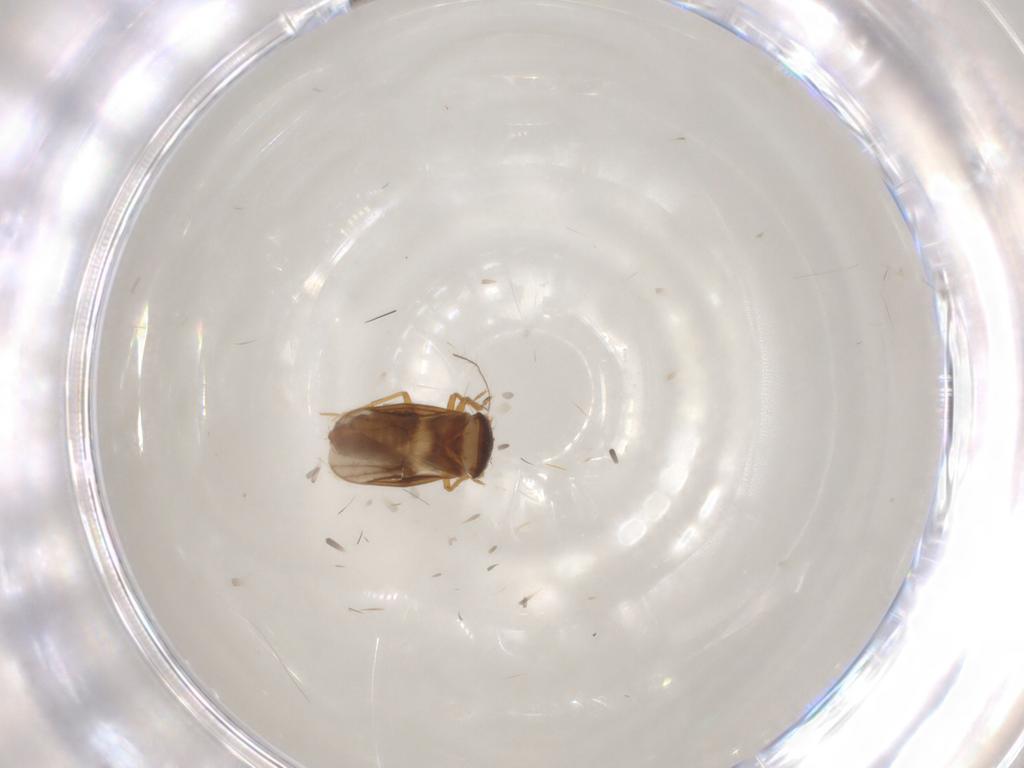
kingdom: Animalia
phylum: Arthropoda
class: Insecta
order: Hemiptera
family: Schizopteridae
